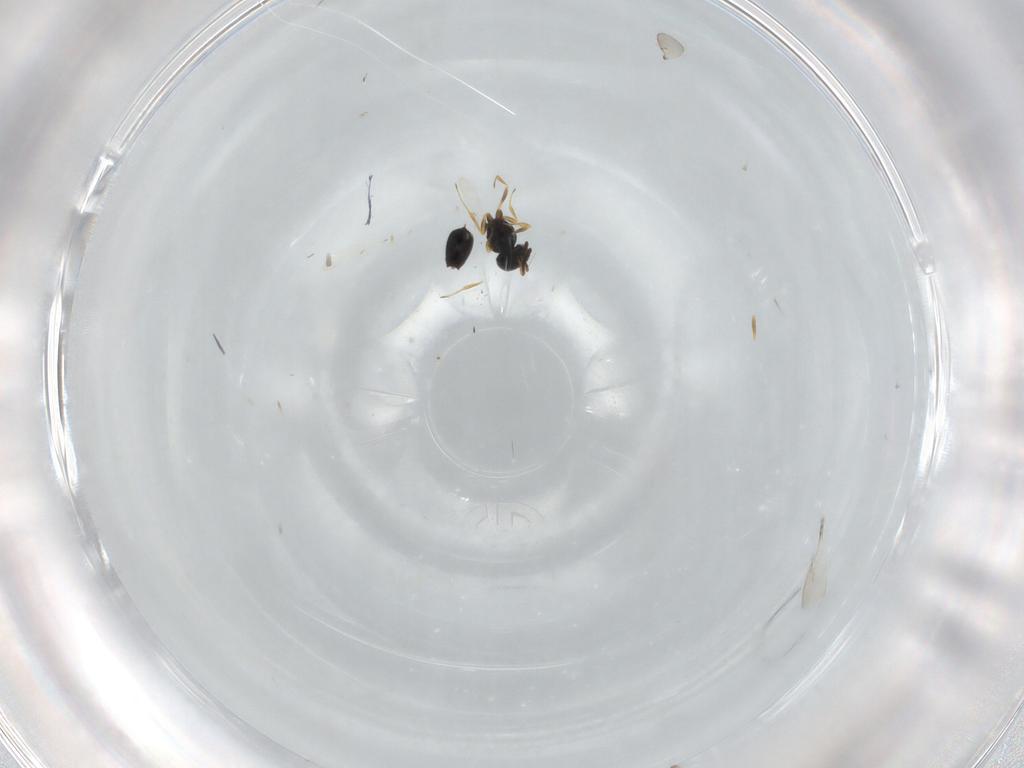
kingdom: Animalia
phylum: Arthropoda
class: Insecta
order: Hymenoptera
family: Scelionidae
